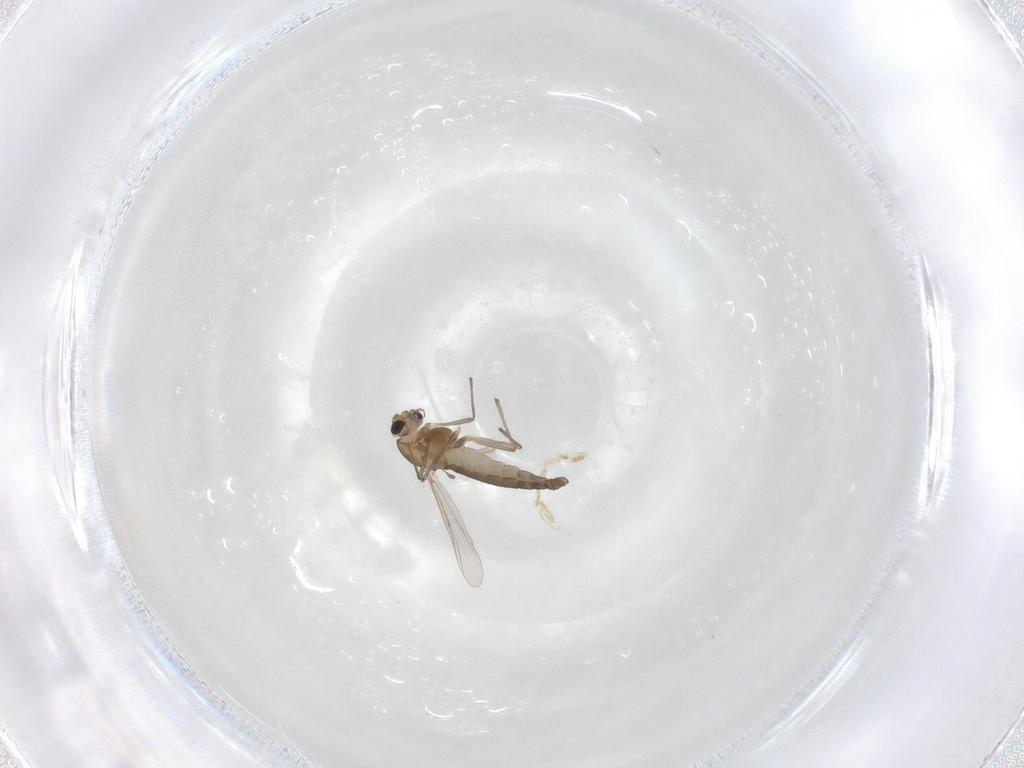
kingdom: Animalia
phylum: Arthropoda
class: Insecta
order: Diptera
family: Chironomidae
